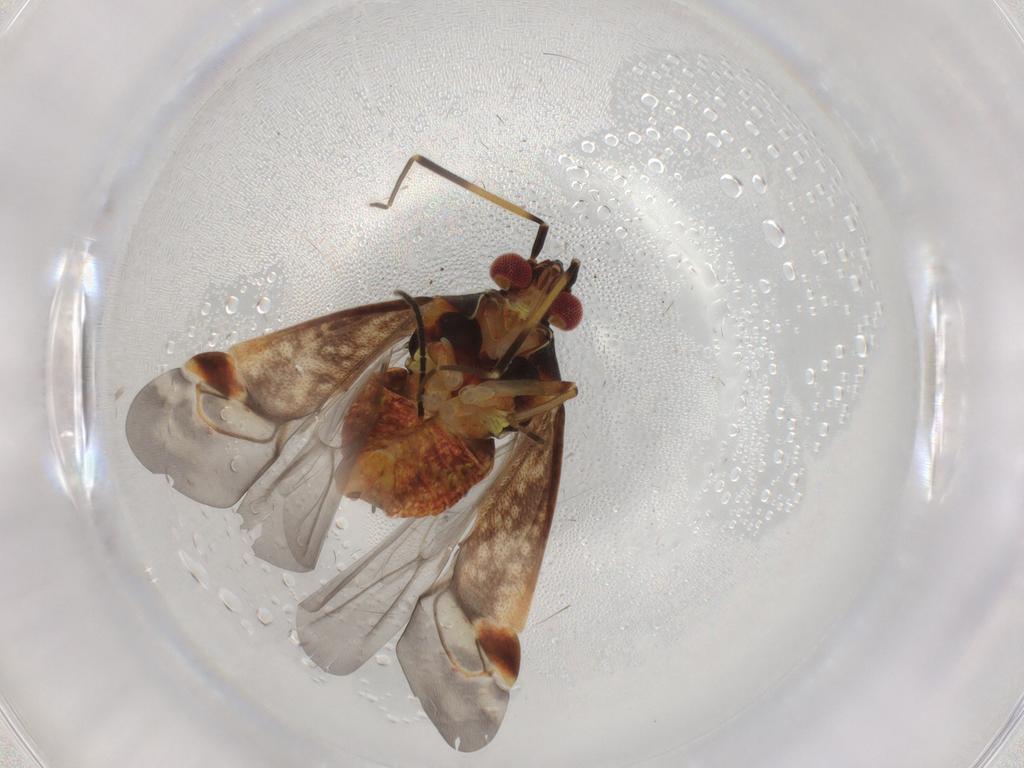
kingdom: Animalia
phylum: Arthropoda
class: Insecta
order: Hemiptera
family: Miridae
